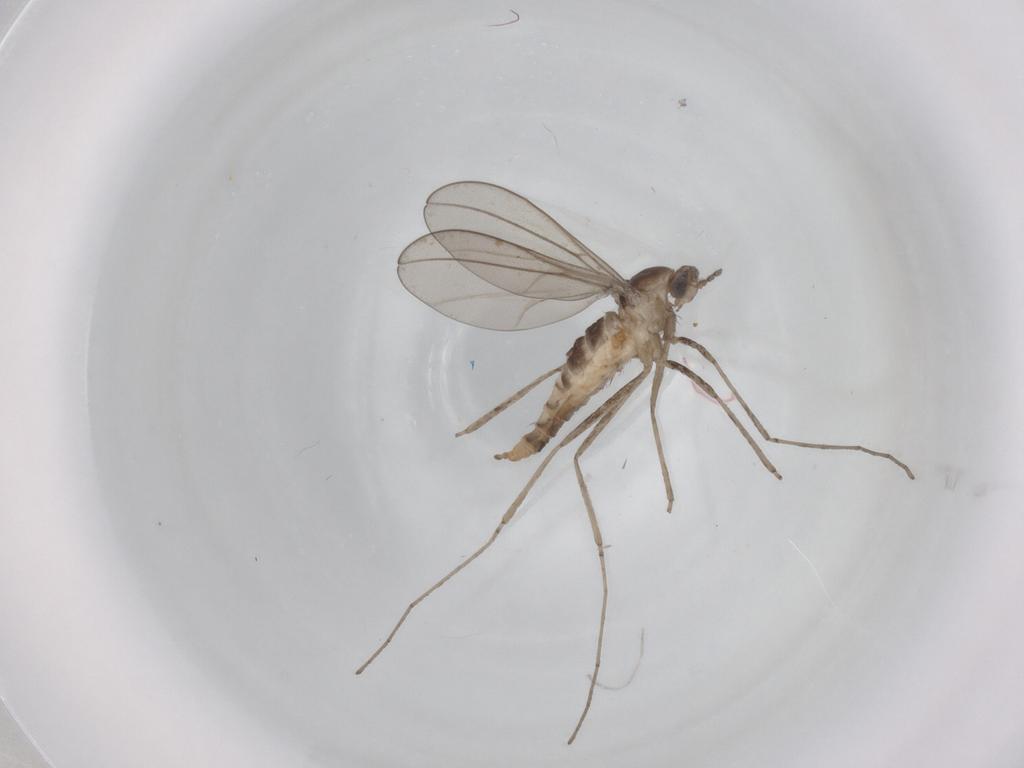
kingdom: Animalia
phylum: Arthropoda
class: Insecta
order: Diptera
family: Cecidomyiidae
